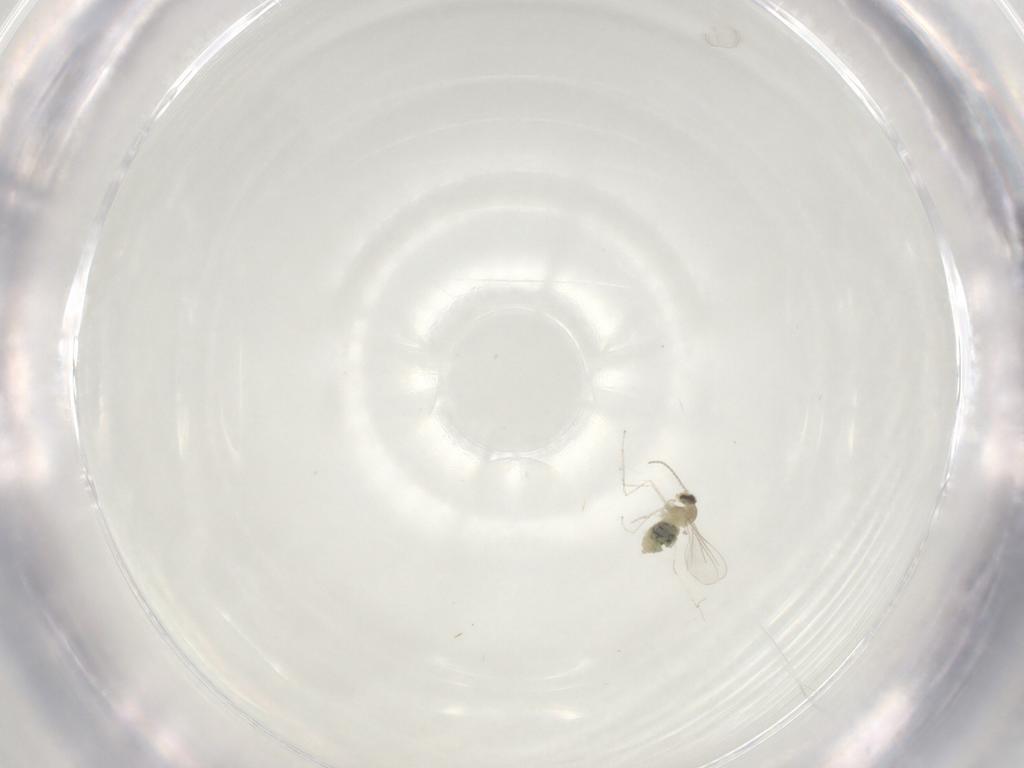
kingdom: Animalia
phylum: Arthropoda
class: Insecta
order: Diptera
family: Cecidomyiidae
